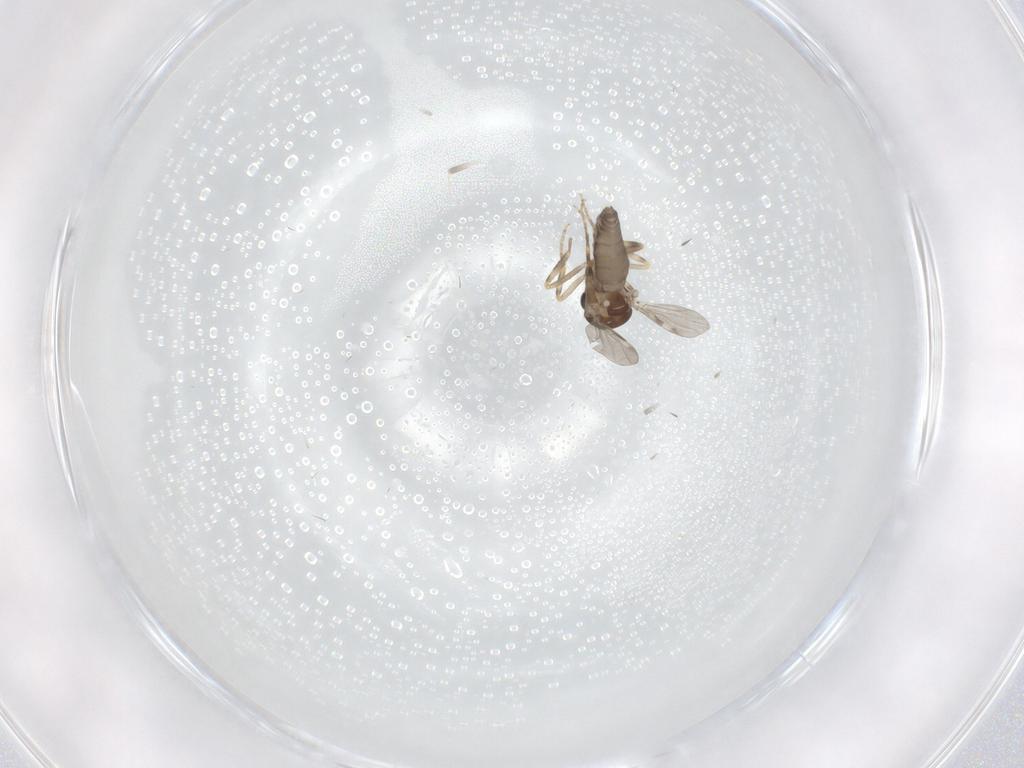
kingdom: Animalia
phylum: Arthropoda
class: Insecta
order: Diptera
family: Ceratopogonidae
